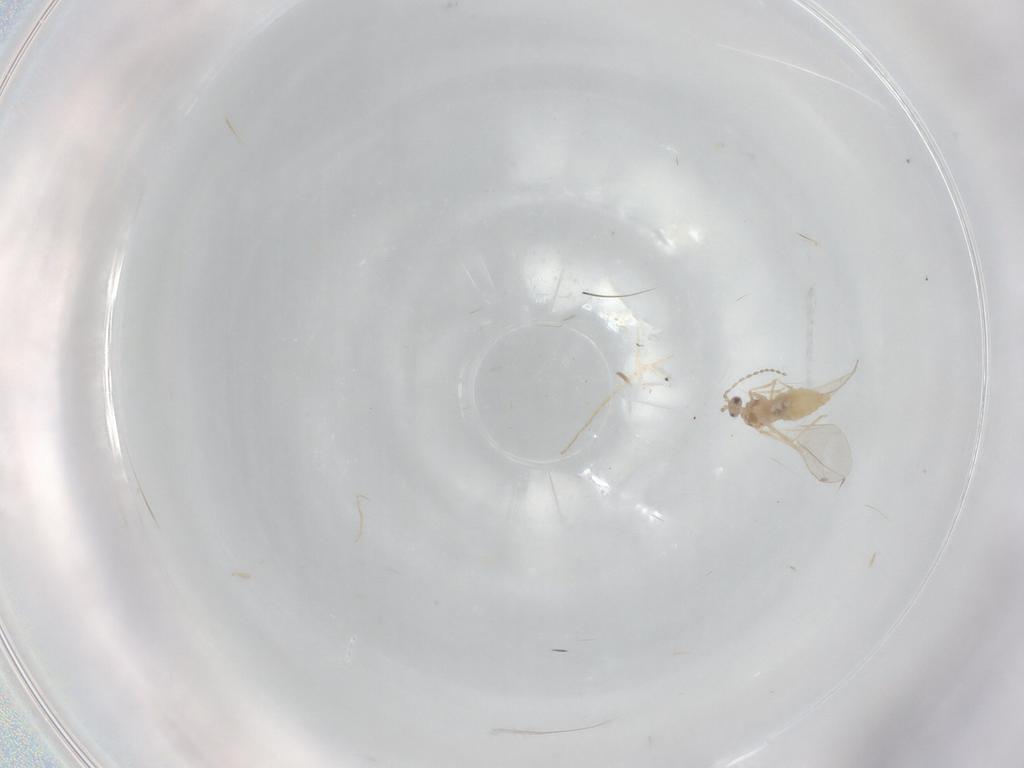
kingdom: Animalia
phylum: Arthropoda
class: Insecta
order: Diptera
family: Cecidomyiidae
